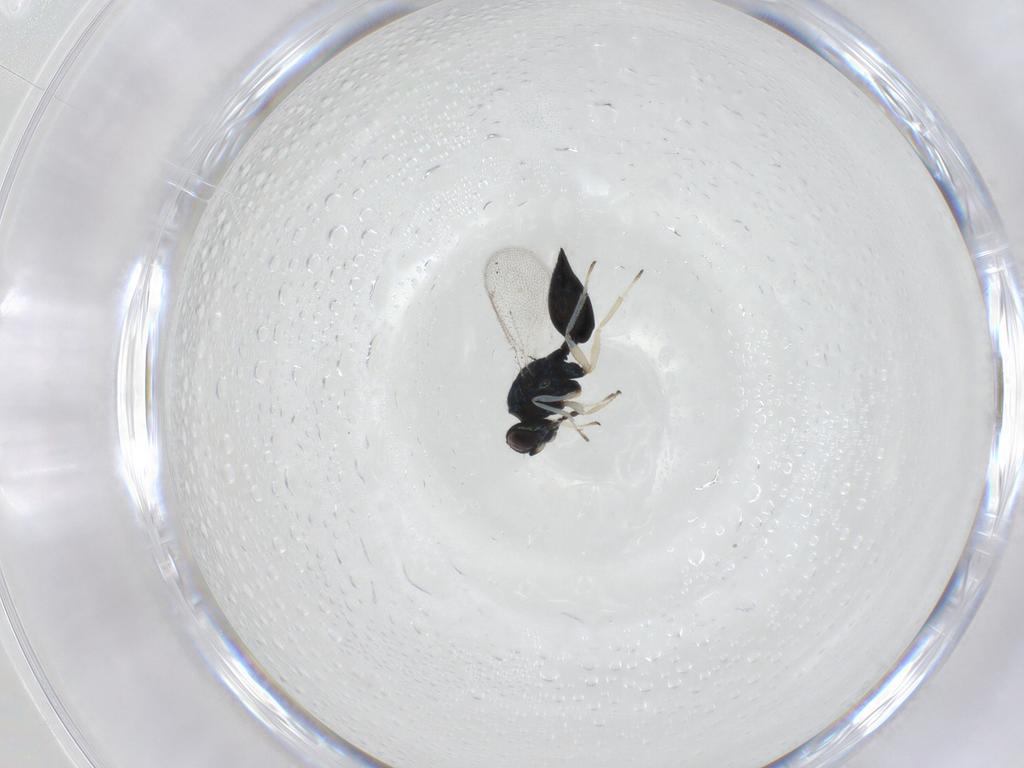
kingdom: Animalia
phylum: Arthropoda
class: Insecta
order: Hymenoptera
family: Eulophidae
